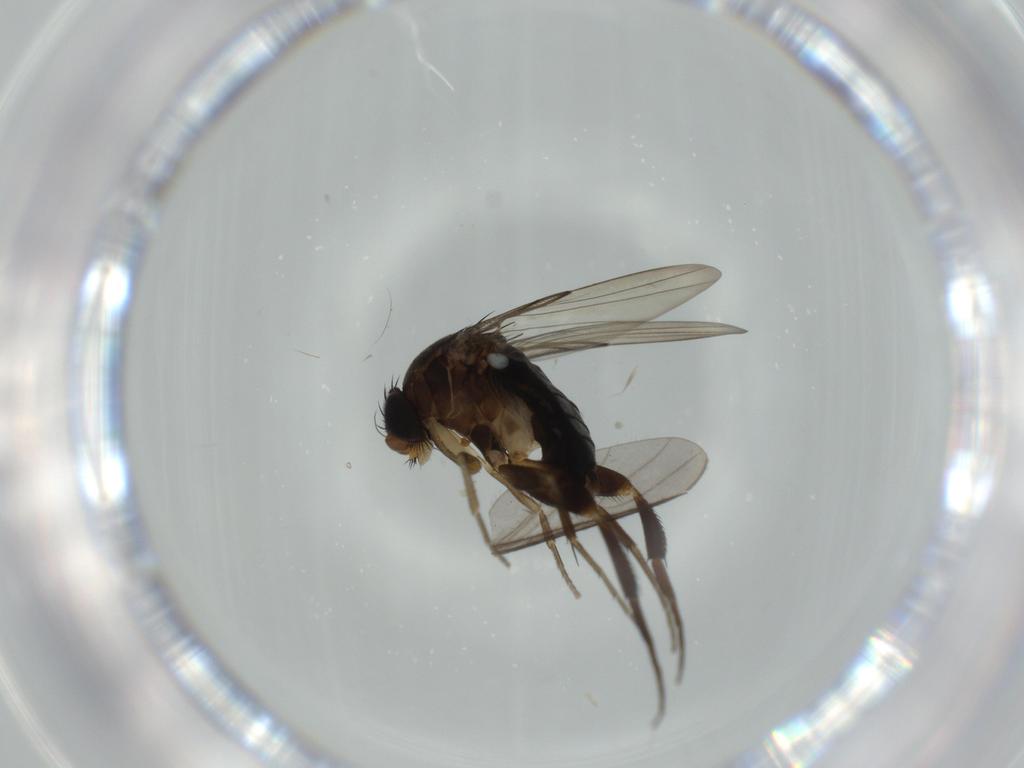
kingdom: Animalia
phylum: Arthropoda
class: Insecta
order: Diptera
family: Phoridae
